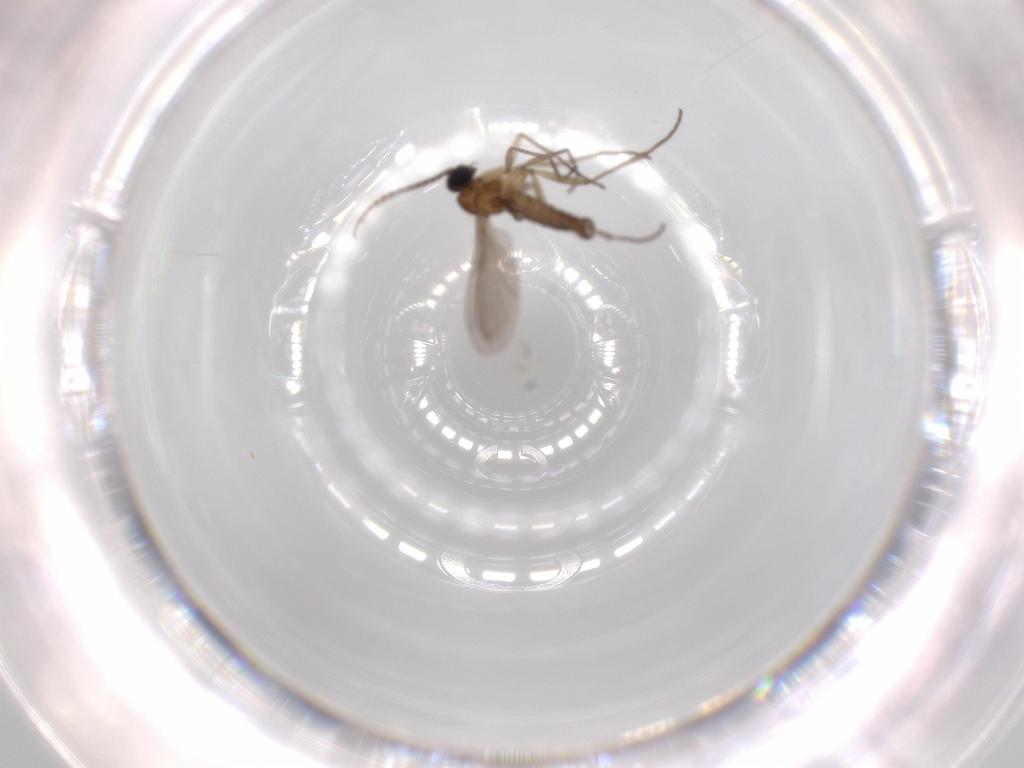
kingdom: Animalia
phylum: Arthropoda
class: Insecta
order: Diptera
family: Sciaridae
